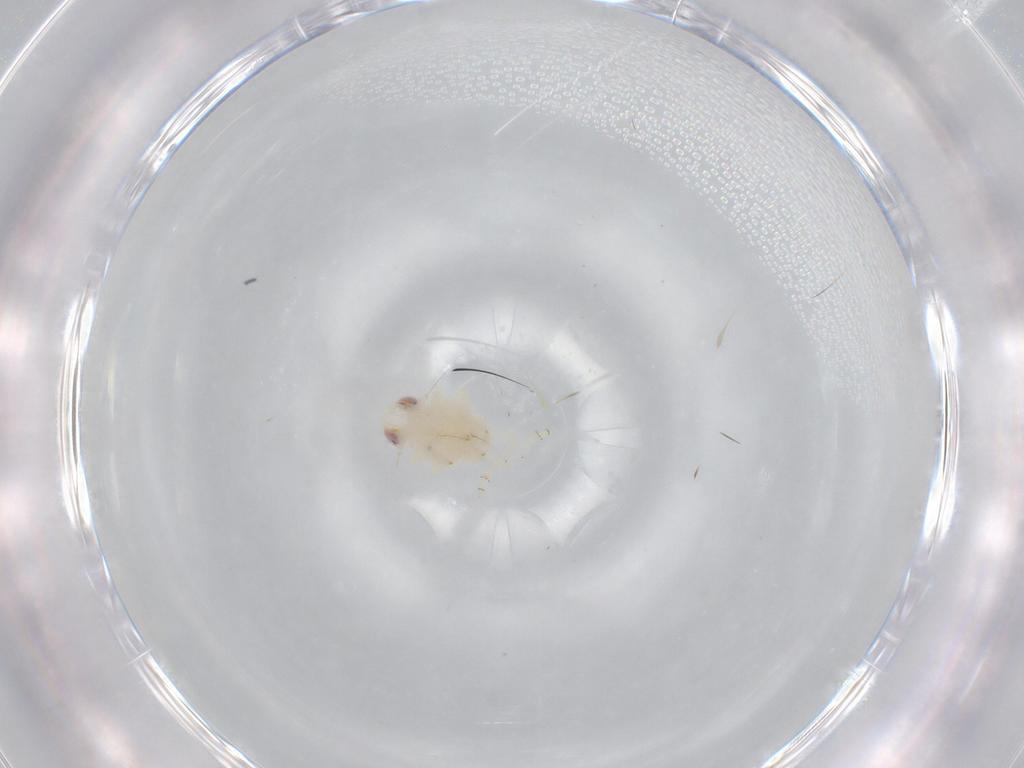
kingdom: Animalia
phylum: Arthropoda
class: Insecta
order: Hemiptera
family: Nogodinidae
